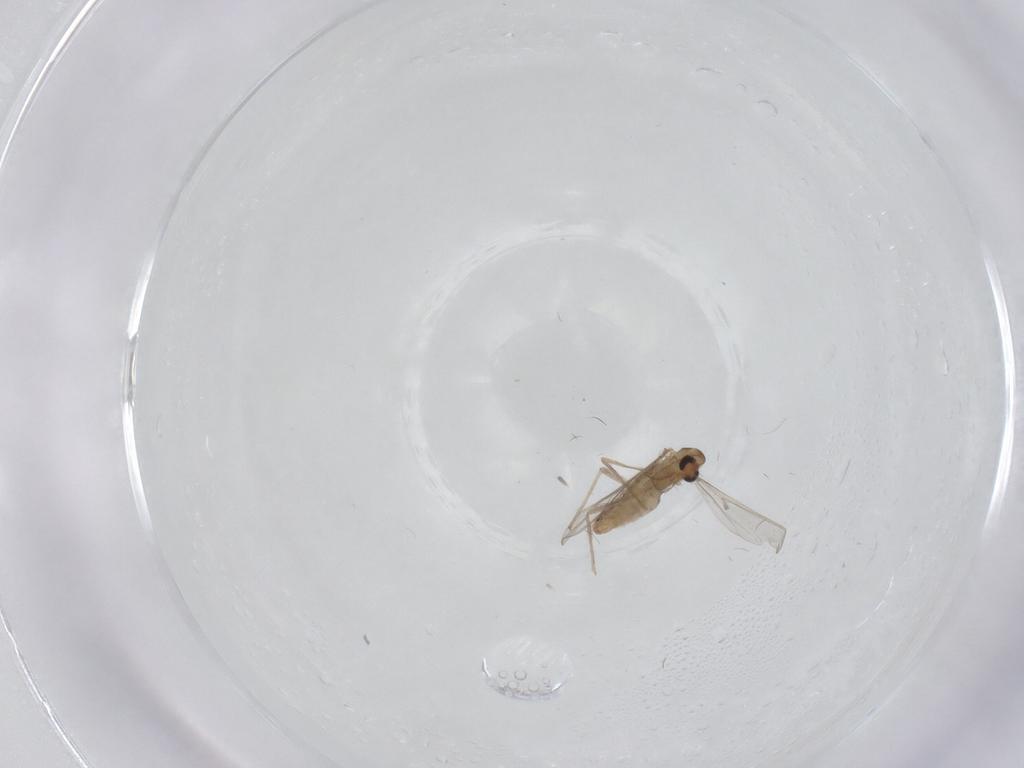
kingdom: Animalia
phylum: Arthropoda
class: Insecta
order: Diptera
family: Chironomidae
